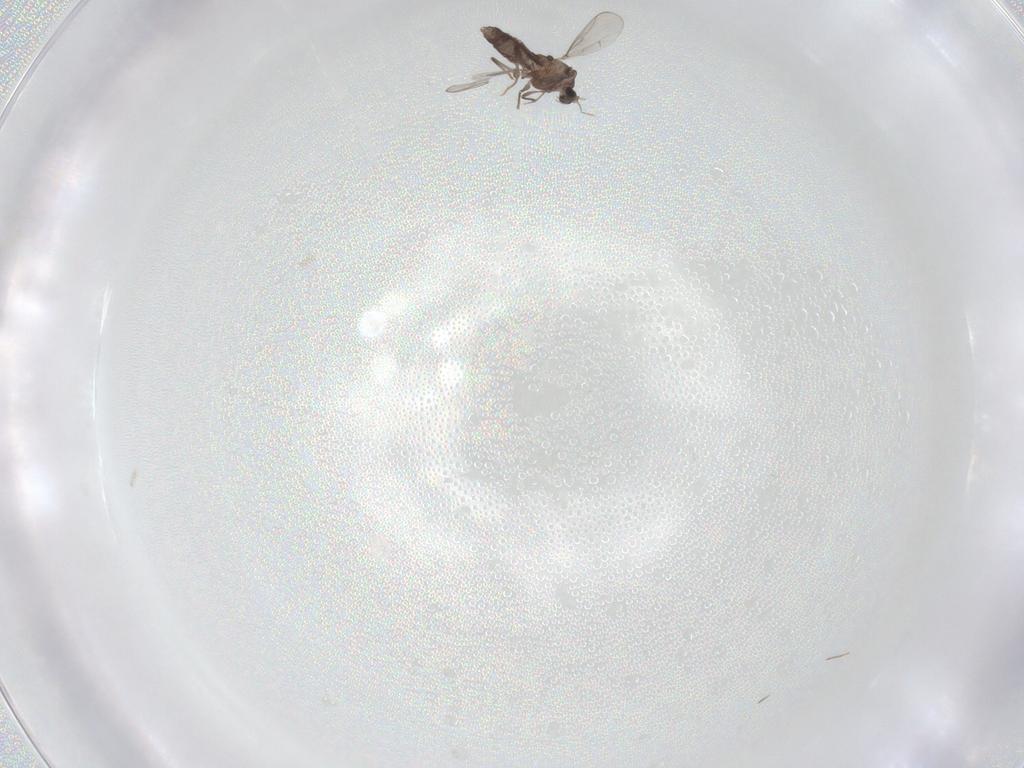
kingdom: Animalia
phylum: Arthropoda
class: Insecta
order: Diptera
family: Chironomidae
